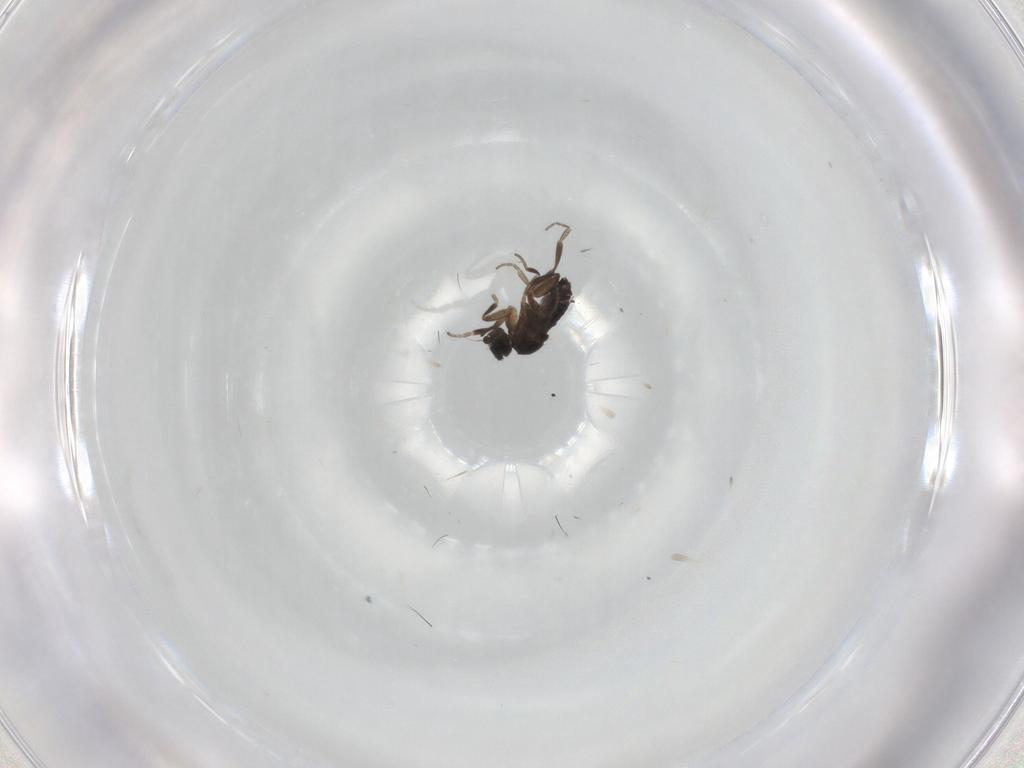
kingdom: Animalia
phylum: Arthropoda
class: Insecta
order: Diptera
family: Phoridae
